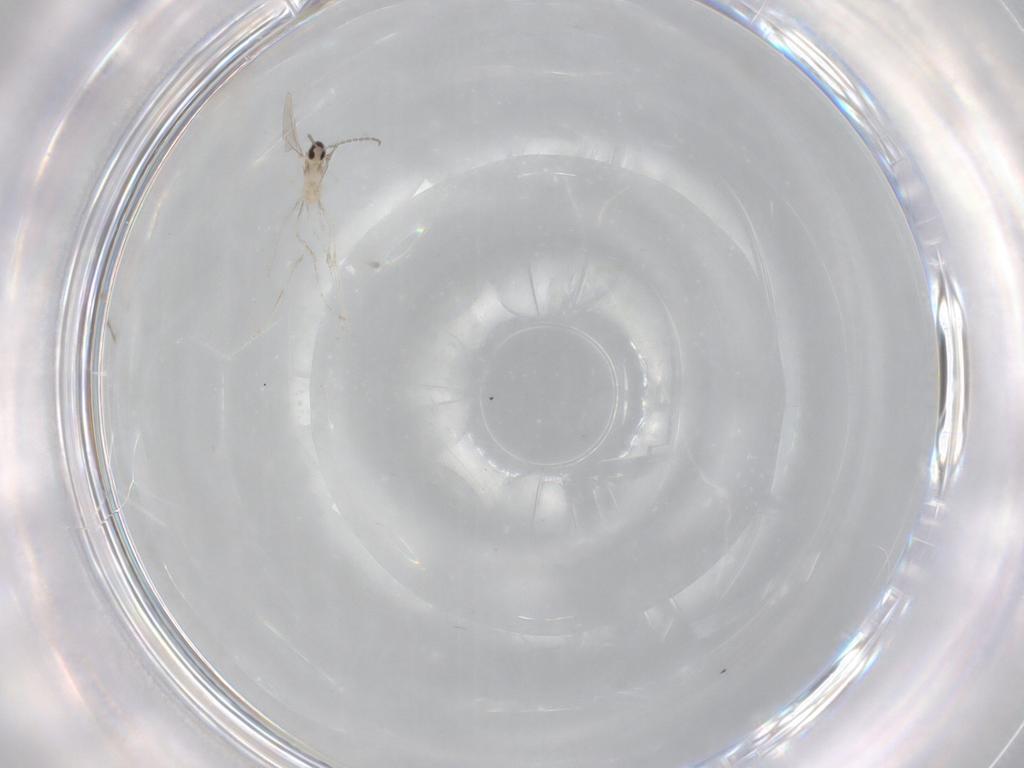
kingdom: Animalia
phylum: Arthropoda
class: Insecta
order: Diptera
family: Cecidomyiidae
